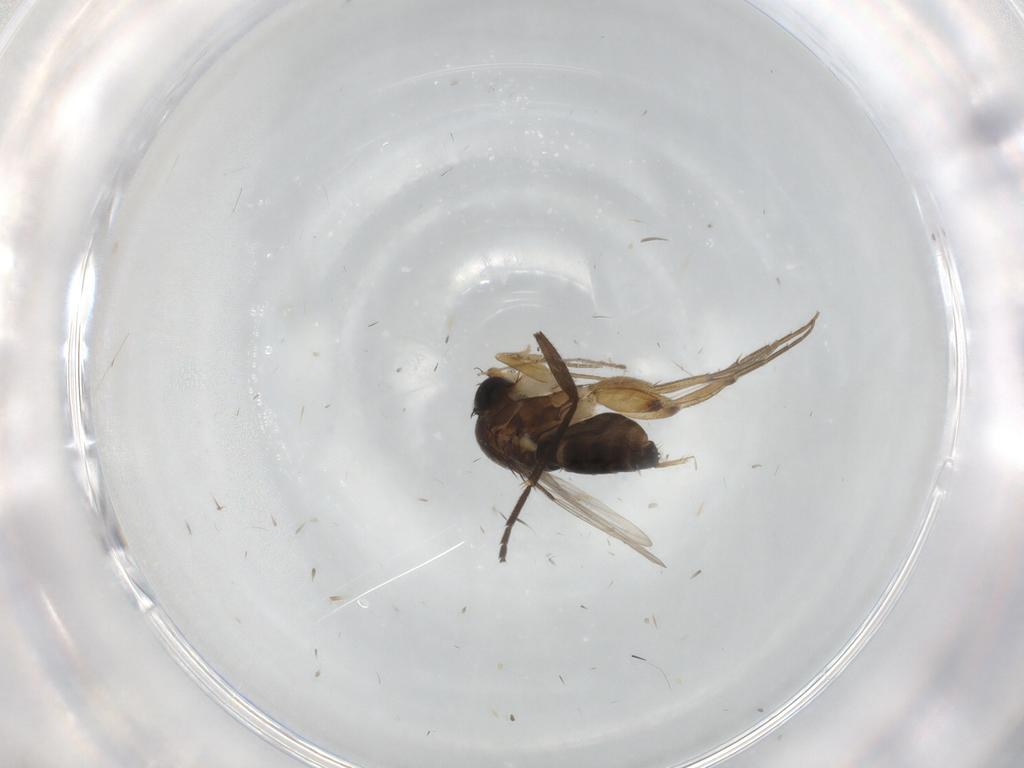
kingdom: Animalia
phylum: Arthropoda
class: Insecta
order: Diptera
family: Phoridae
